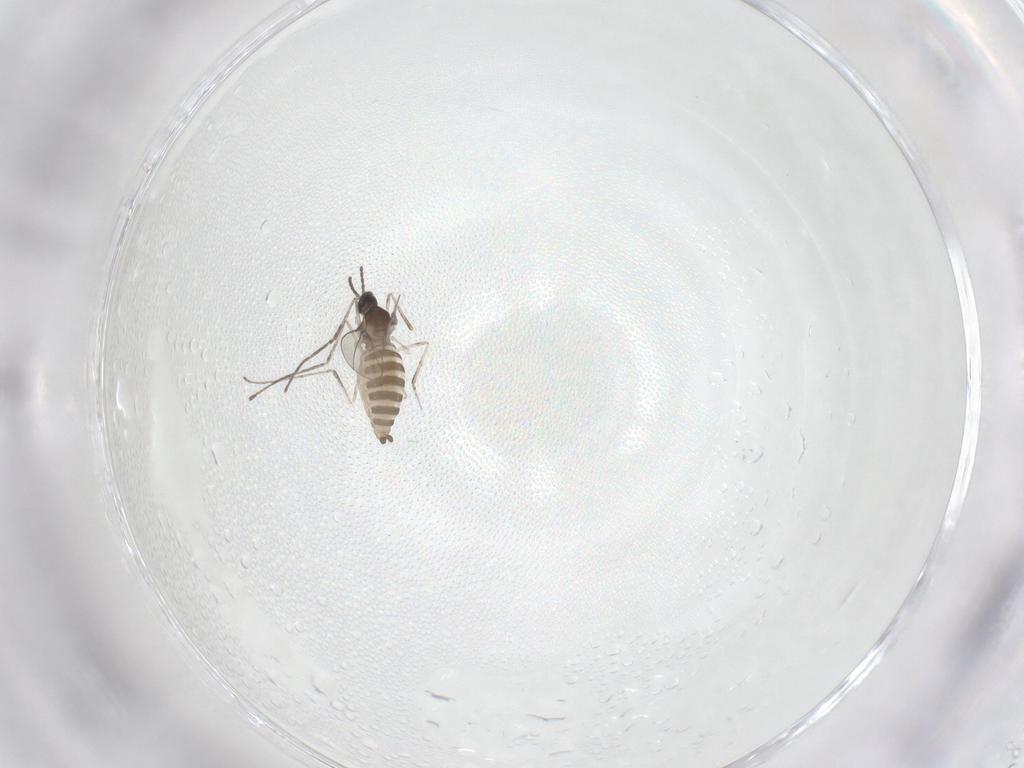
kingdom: Animalia
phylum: Arthropoda
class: Insecta
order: Diptera
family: Cecidomyiidae
